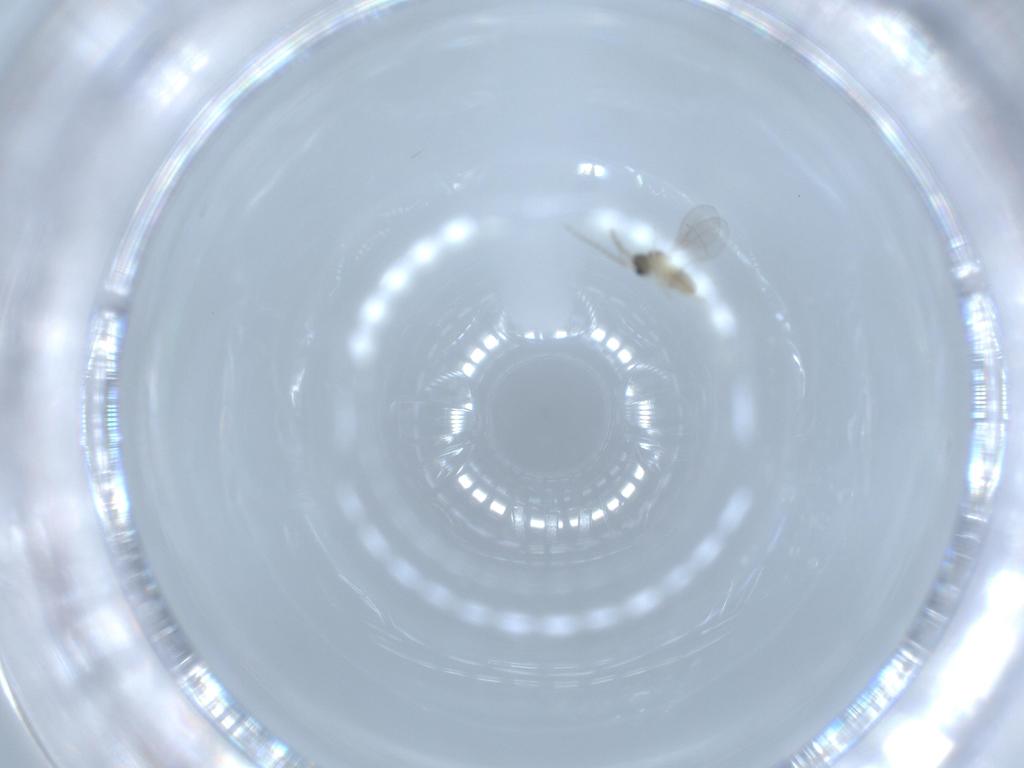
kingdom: Animalia
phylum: Arthropoda
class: Insecta
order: Diptera
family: Cecidomyiidae
